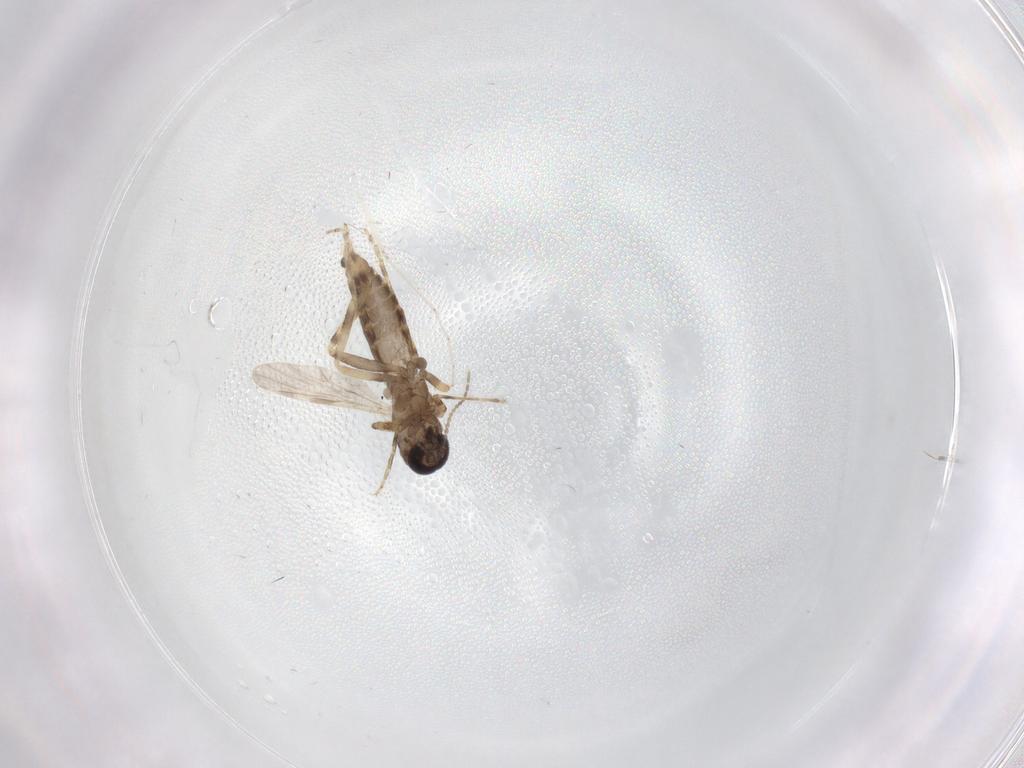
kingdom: Animalia
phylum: Arthropoda
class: Insecta
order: Diptera
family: Ceratopogonidae
